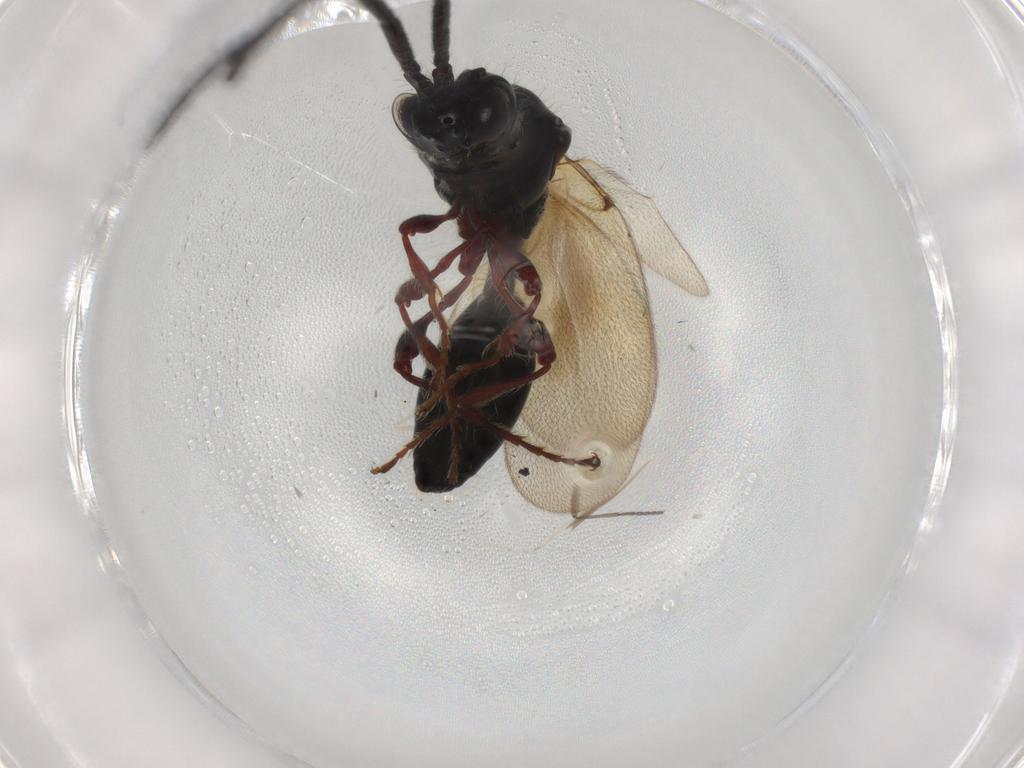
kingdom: Animalia
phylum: Arthropoda
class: Insecta
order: Hymenoptera
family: Diapriidae
